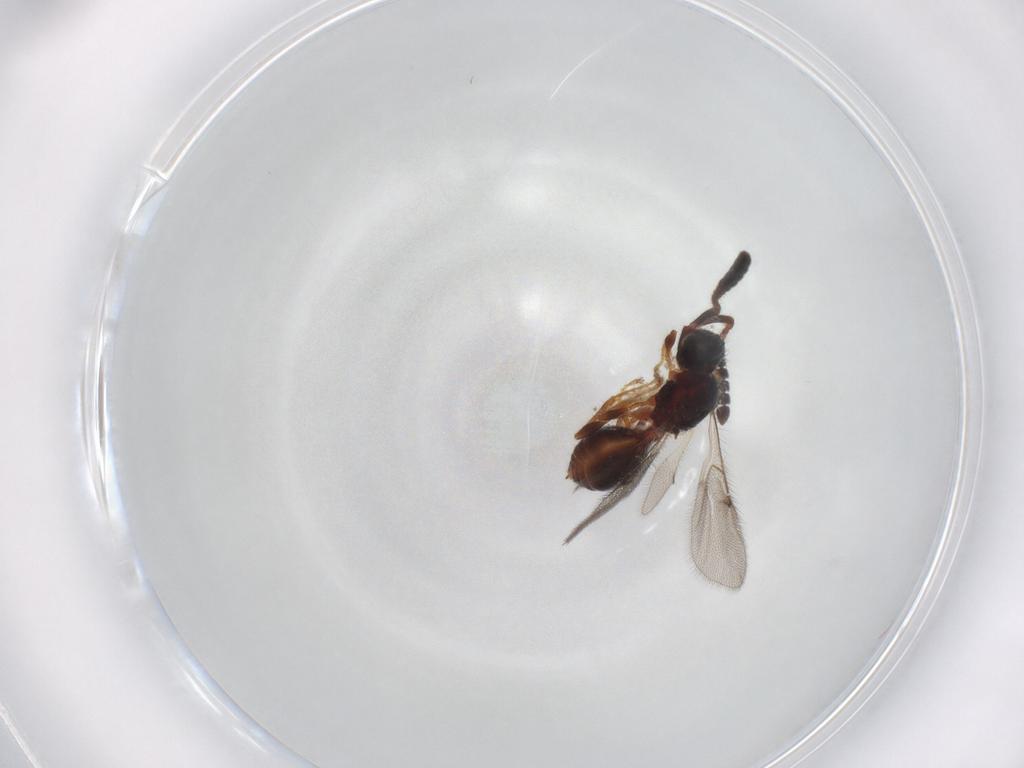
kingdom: Animalia
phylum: Arthropoda
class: Insecta
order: Hymenoptera
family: Diapriidae
